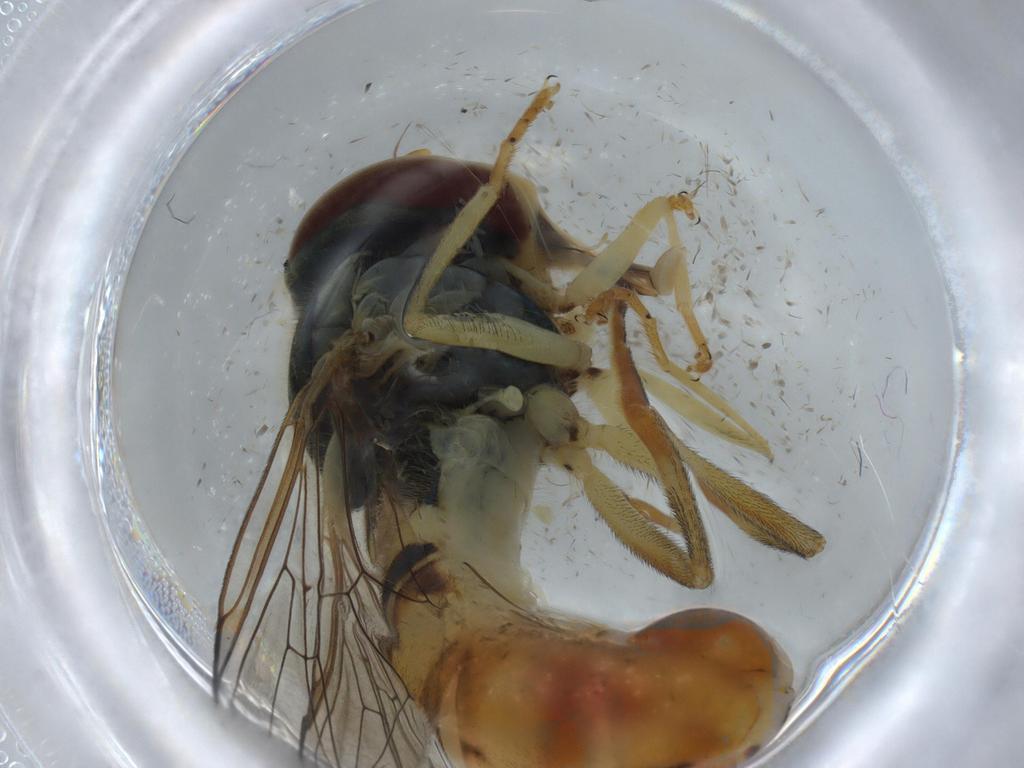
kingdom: Animalia
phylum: Arthropoda
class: Insecta
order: Diptera
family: Syrphidae
